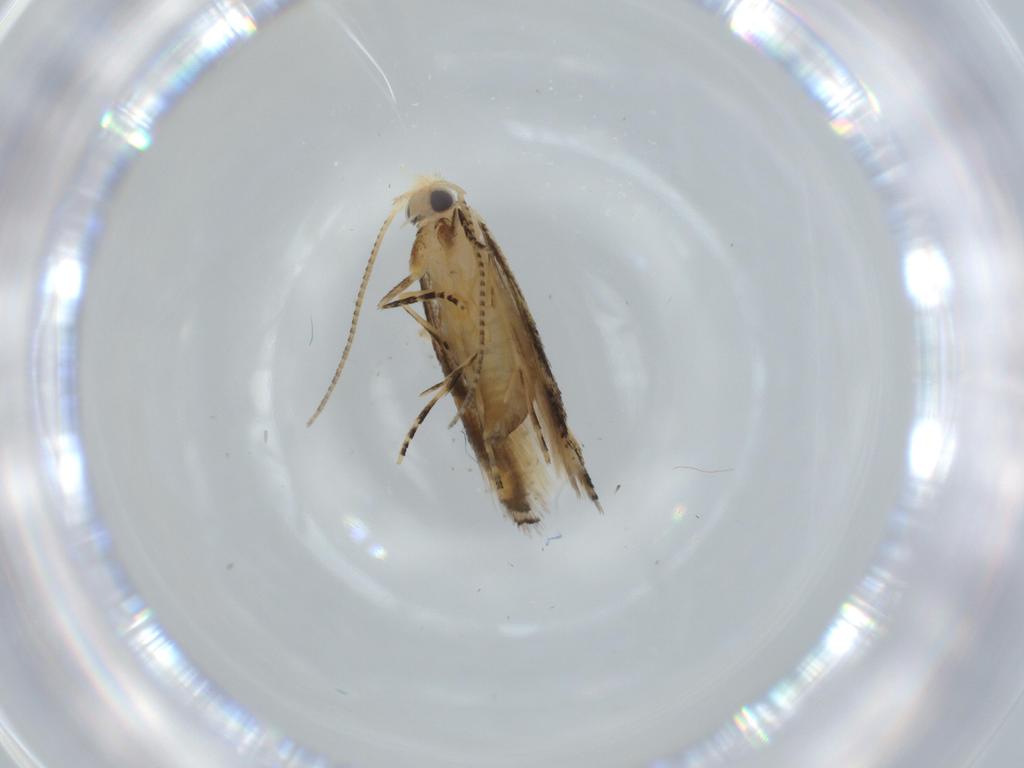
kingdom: Animalia
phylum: Arthropoda
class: Insecta
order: Lepidoptera
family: Bucculatricidae
